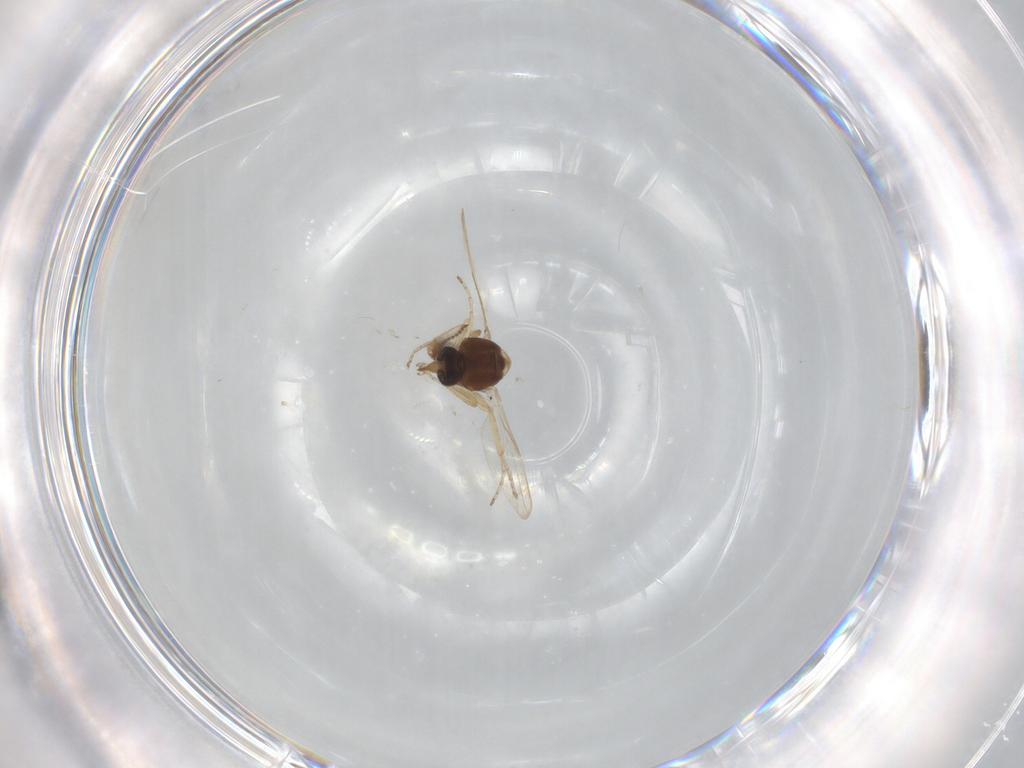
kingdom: Animalia
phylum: Arthropoda
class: Insecta
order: Diptera
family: Ceratopogonidae
